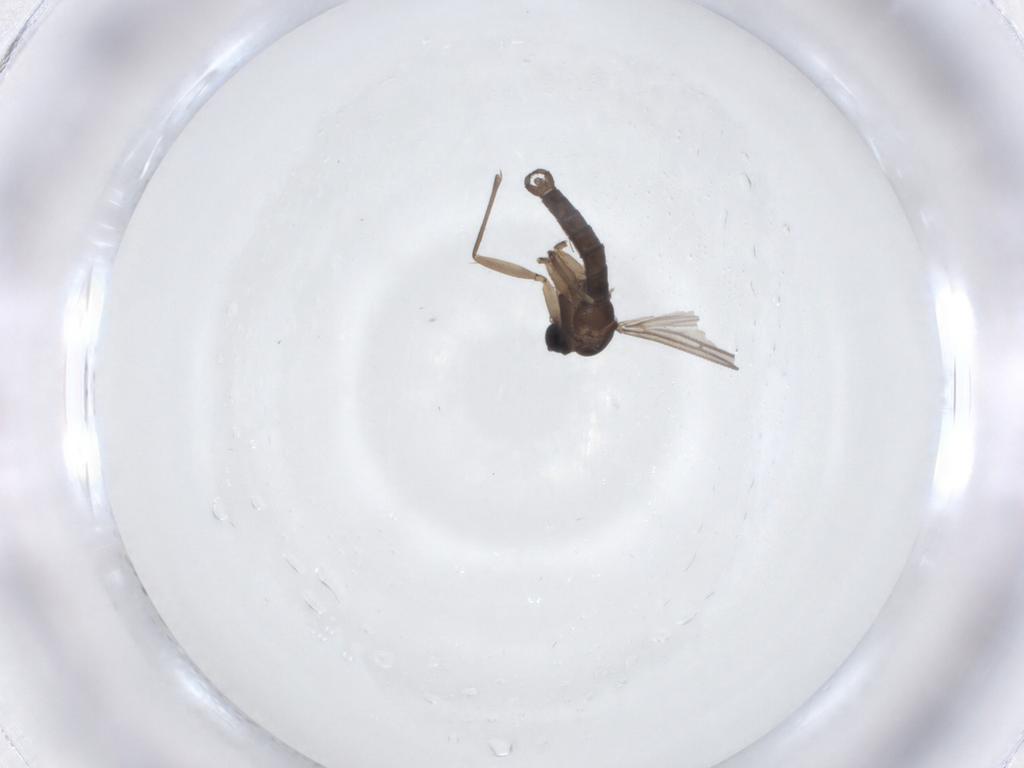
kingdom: Animalia
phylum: Arthropoda
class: Insecta
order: Diptera
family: Sciaridae
